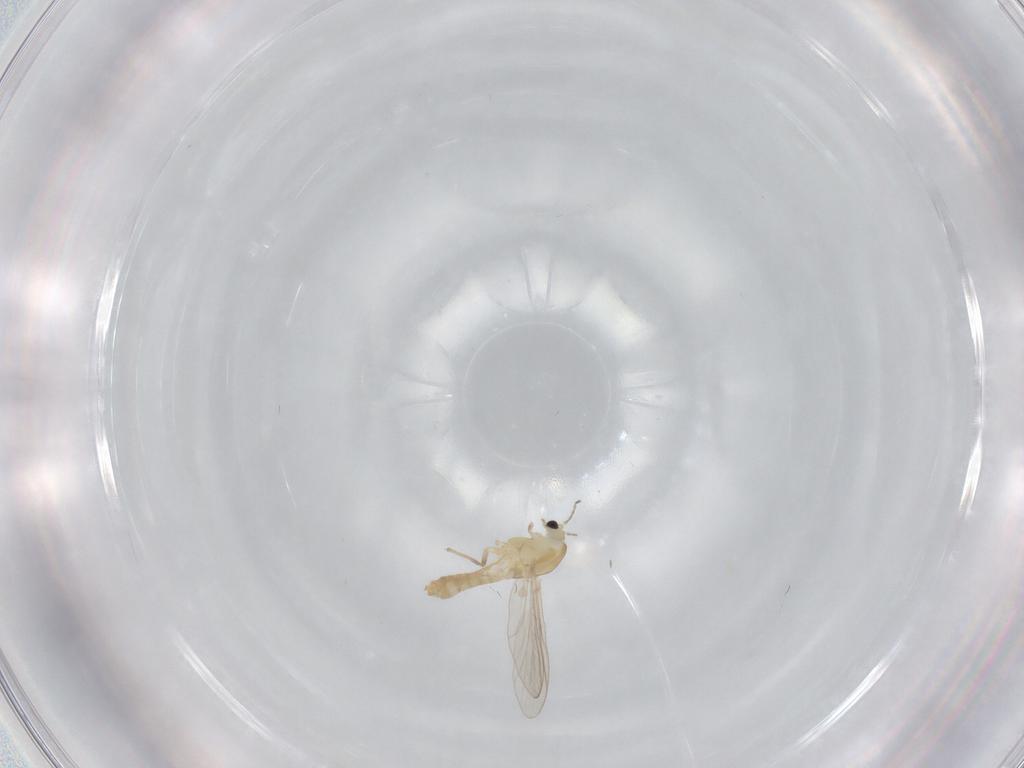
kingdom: Animalia
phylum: Arthropoda
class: Insecta
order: Diptera
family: Chironomidae
